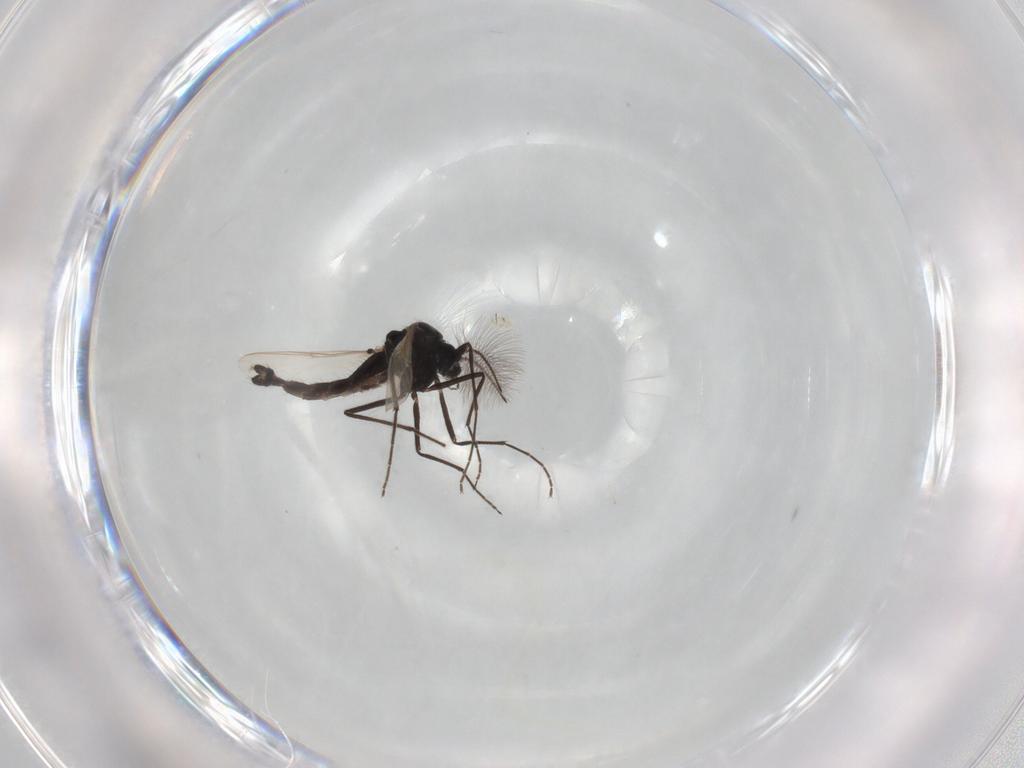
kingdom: Animalia
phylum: Arthropoda
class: Insecta
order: Diptera
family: Chironomidae
